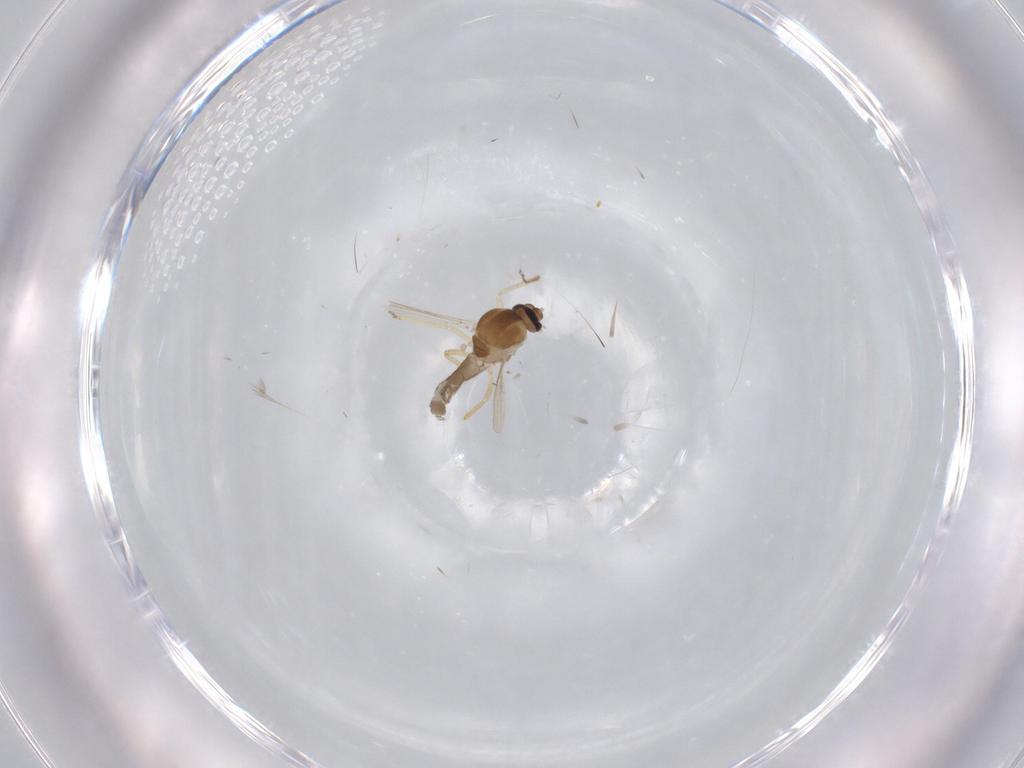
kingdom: Animalia
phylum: Arthropoda
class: Insecta
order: Diptera
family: Ceratopogonidae
